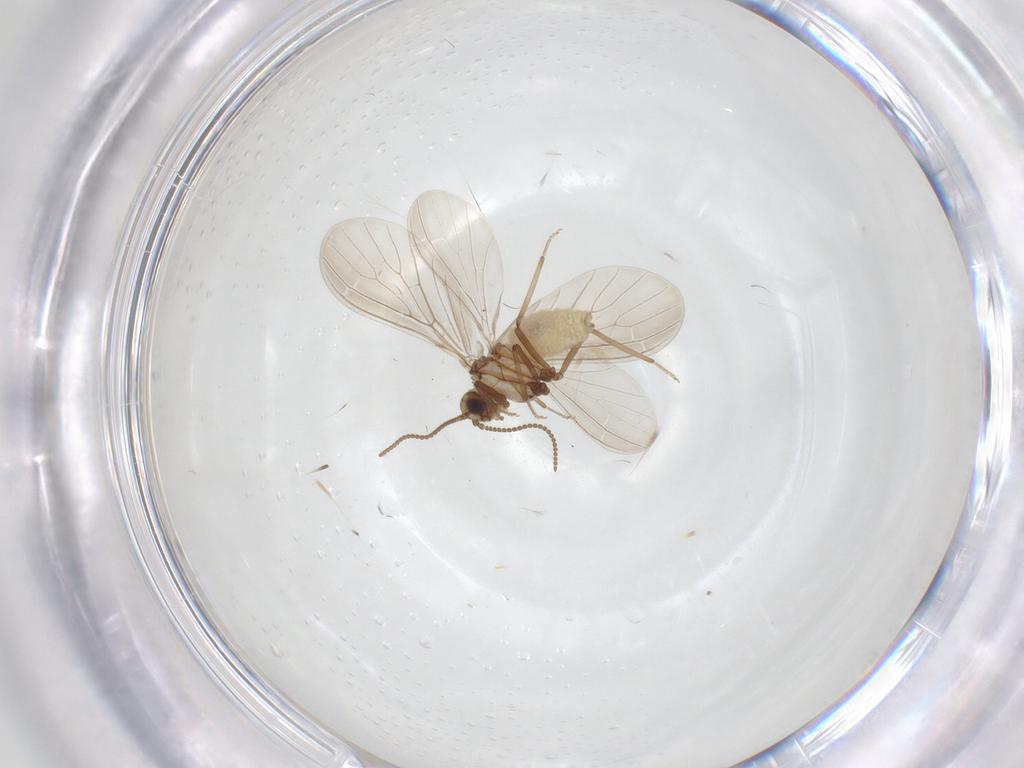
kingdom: Animalia
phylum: Arthropoda
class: Insecta
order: Neuroptera
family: Coniopterygidae
